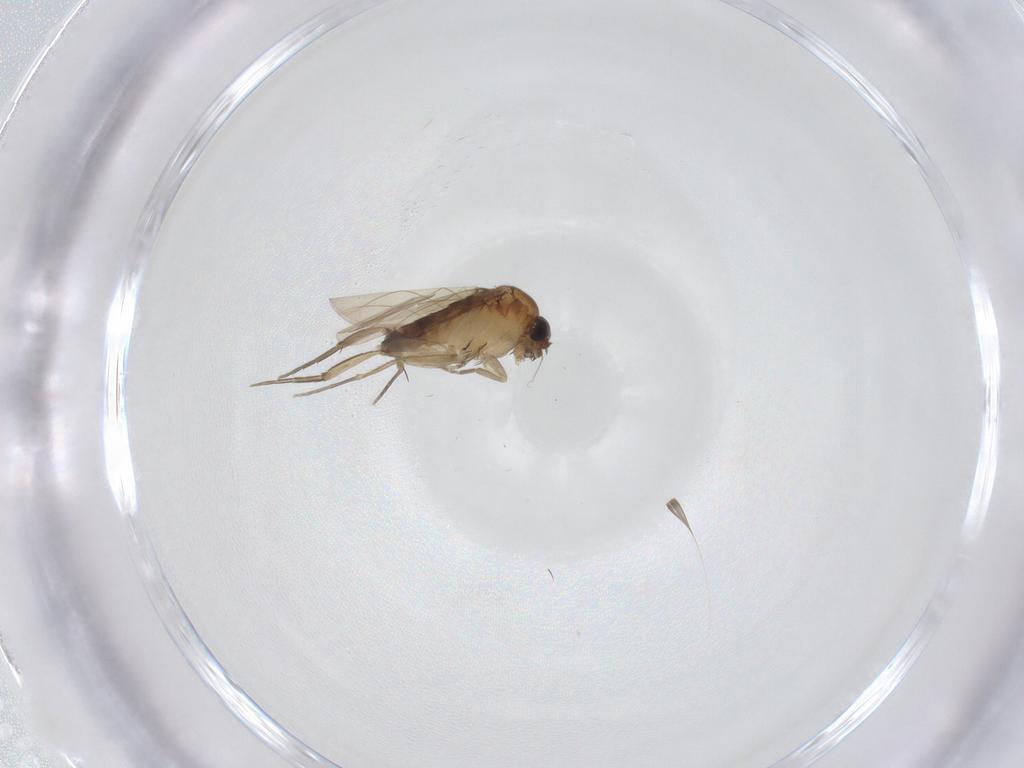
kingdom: Animalia
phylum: Arthropoda
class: Insecta
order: Diptera
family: Phoridae
